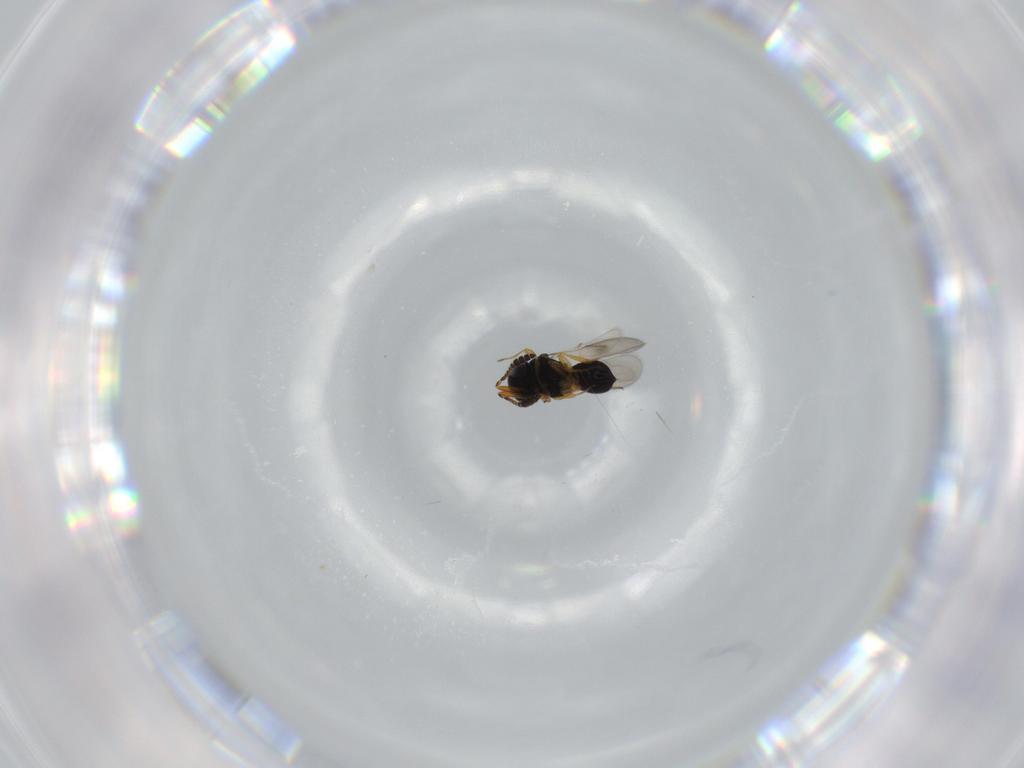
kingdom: Animalia
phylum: Arthropoda
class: Insecta
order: Hymenoptera
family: Scelionidae
